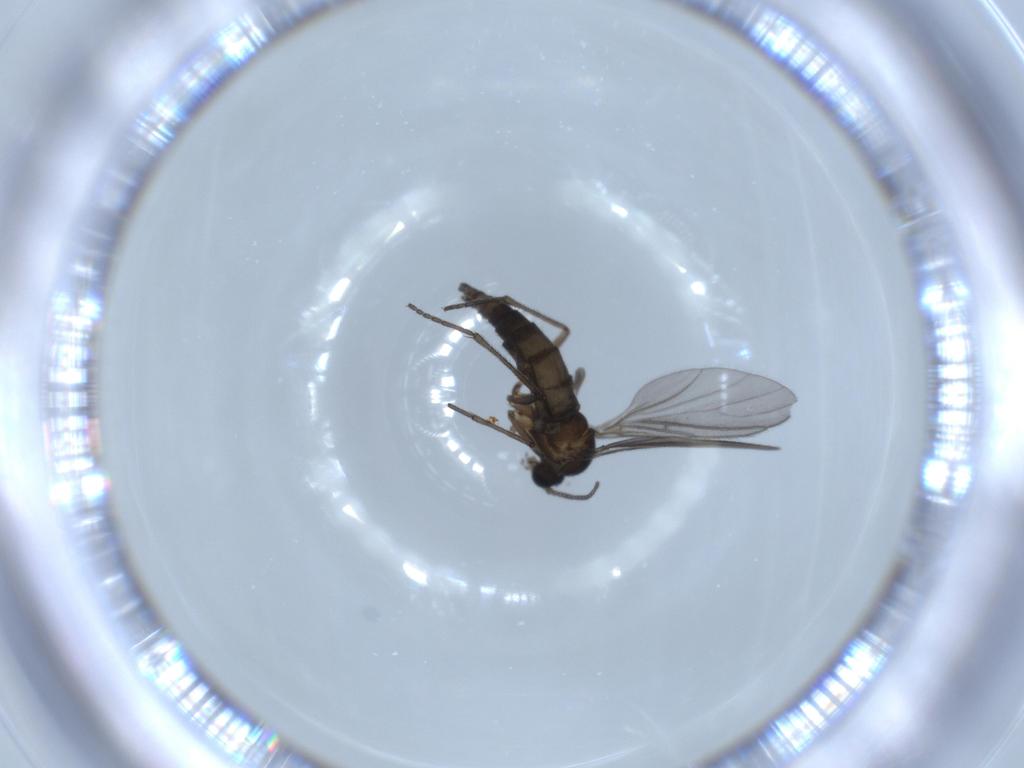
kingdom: Animalia
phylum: Arthropoda
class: Insecta
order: Diptera
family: Sciaridae
